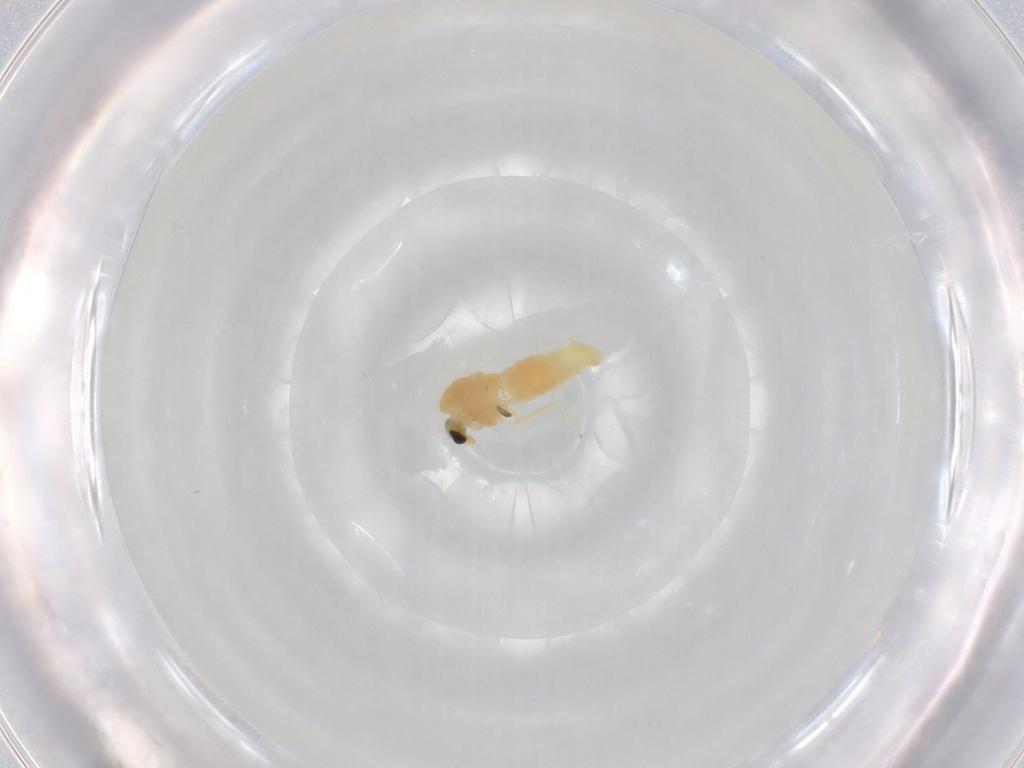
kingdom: Animalia
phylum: Arthropoda
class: Insecta
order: Diptera
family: Chironomidae
